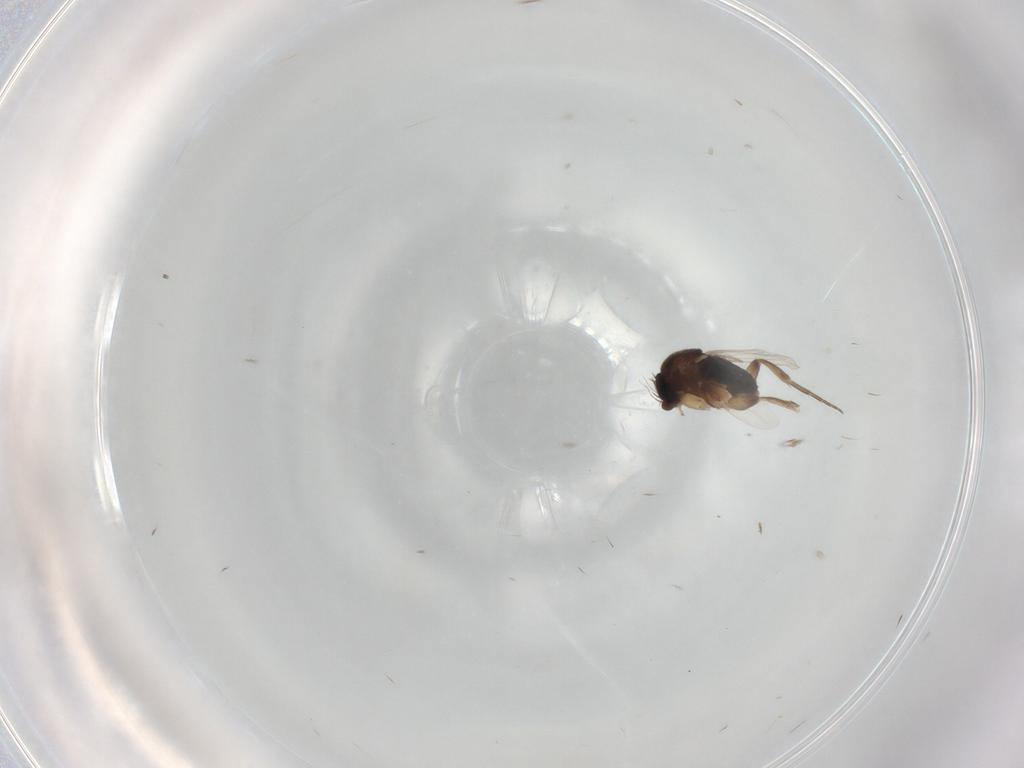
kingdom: Animalia
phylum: Arthropoda
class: Insecta
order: Diptera
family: Phoridae
